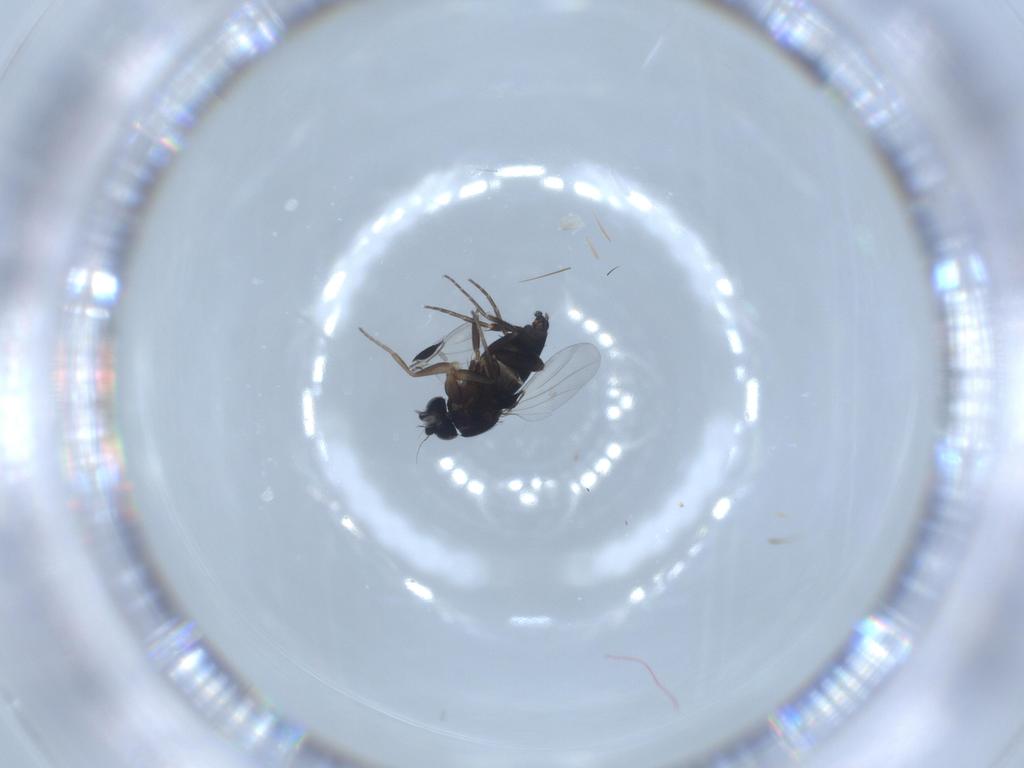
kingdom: Animalia
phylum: Arthropoda
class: Insecta
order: Diptera
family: Phoridae
